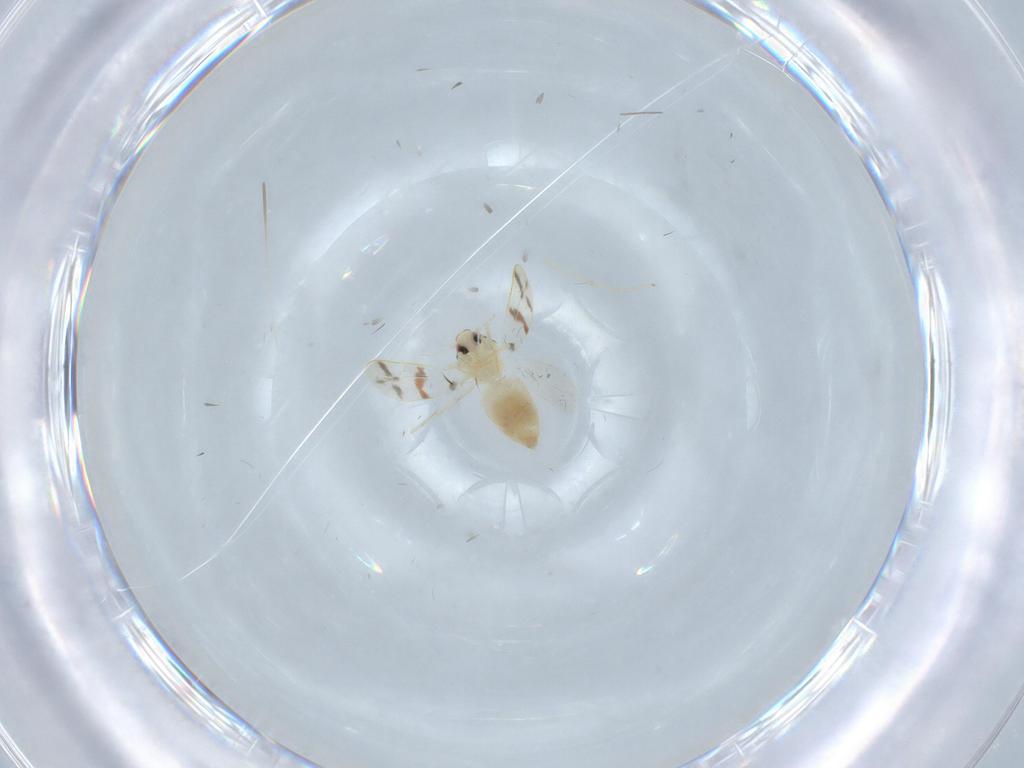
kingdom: Animalia
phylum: Arthropoda
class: Insecta
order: Hemiptera
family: Aleyrodidae
